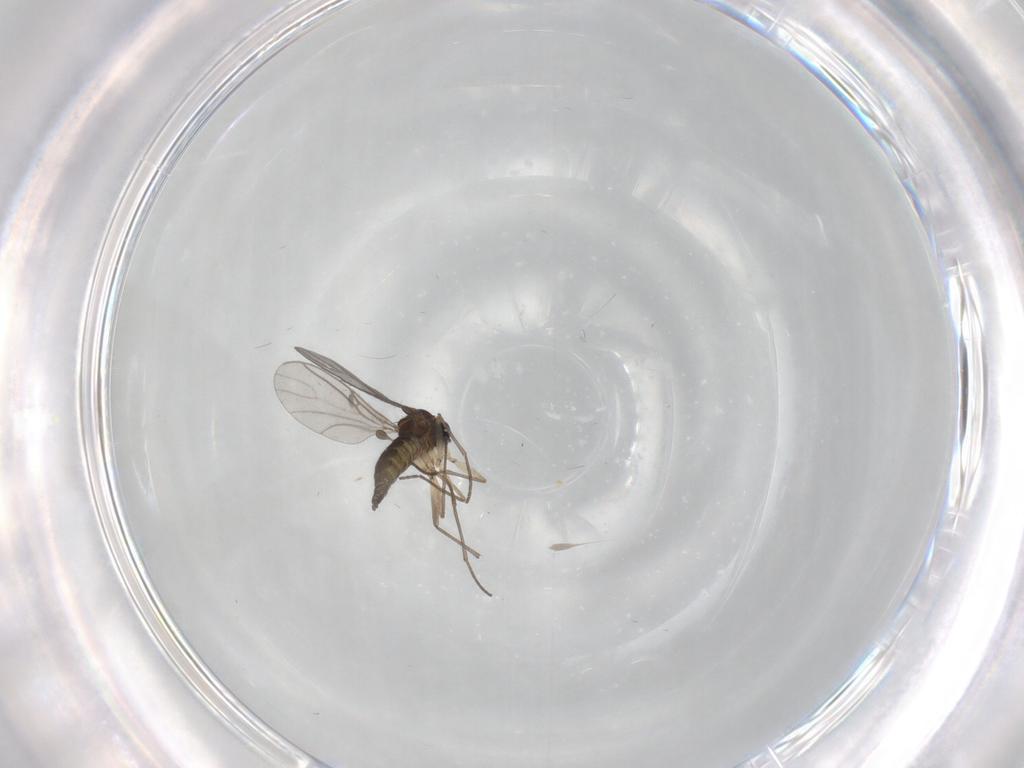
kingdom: Animalia
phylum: Arthropoda
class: Insecta
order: Diptera
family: Sciaridae
